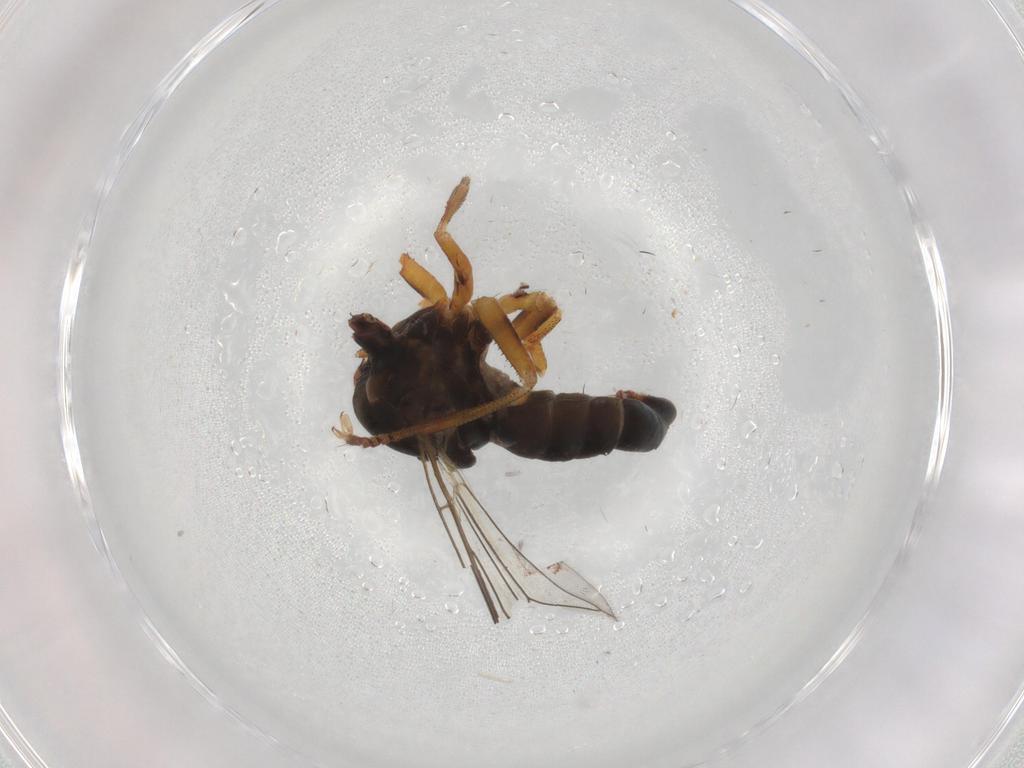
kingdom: Animalia
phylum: Arthropoda
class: Insecta
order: Diptera
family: Pipunculidae
